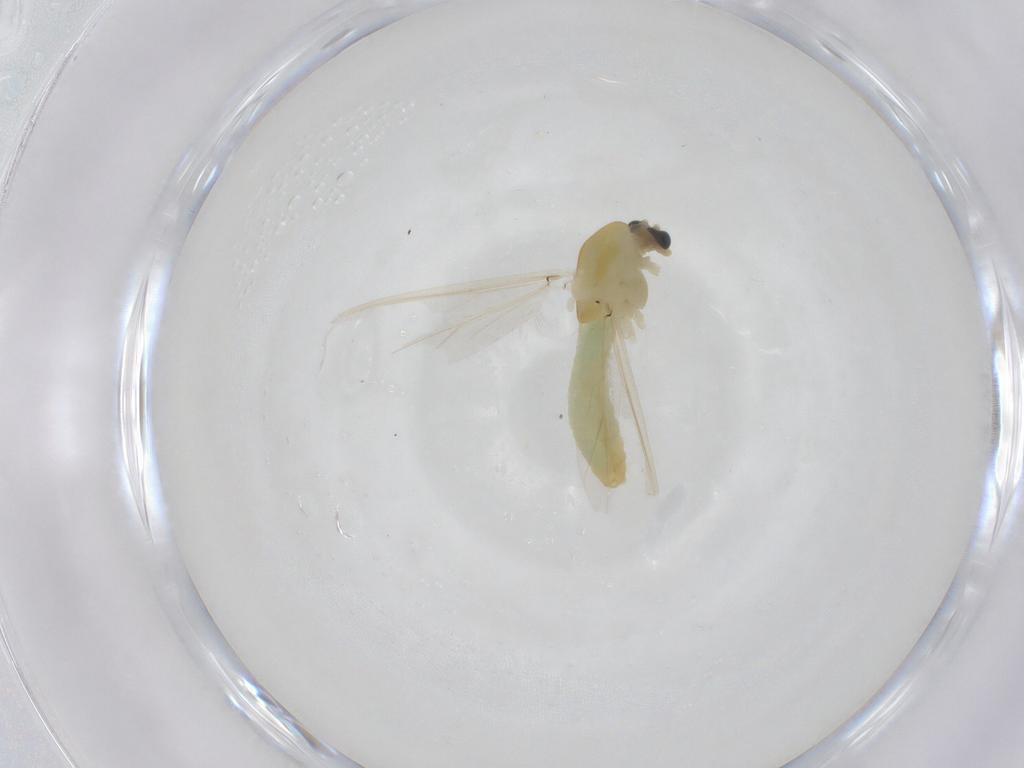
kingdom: Animalia
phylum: Arthropoda
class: Insecta
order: Diptera
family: Chironomidae
